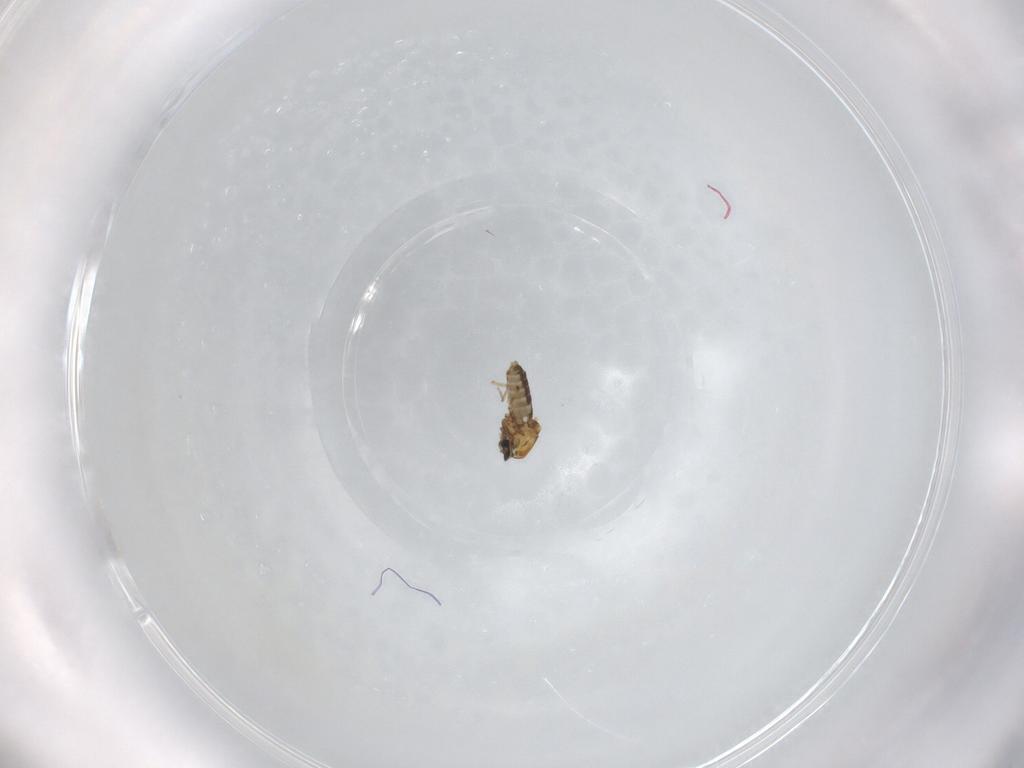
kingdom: Animalia
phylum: Arthropoda
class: Insecta
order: Diptera
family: Ceratopogonidae
